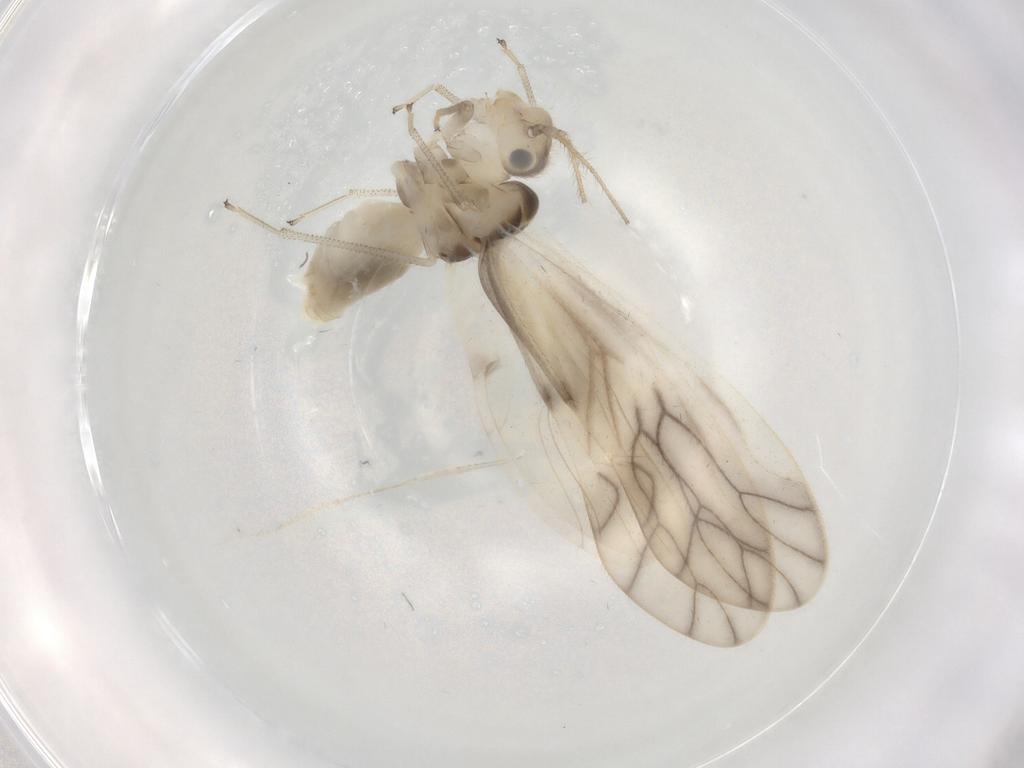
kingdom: Animalia
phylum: Arthropoda
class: Insecta
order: Psocodea
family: Caeciliusidae
